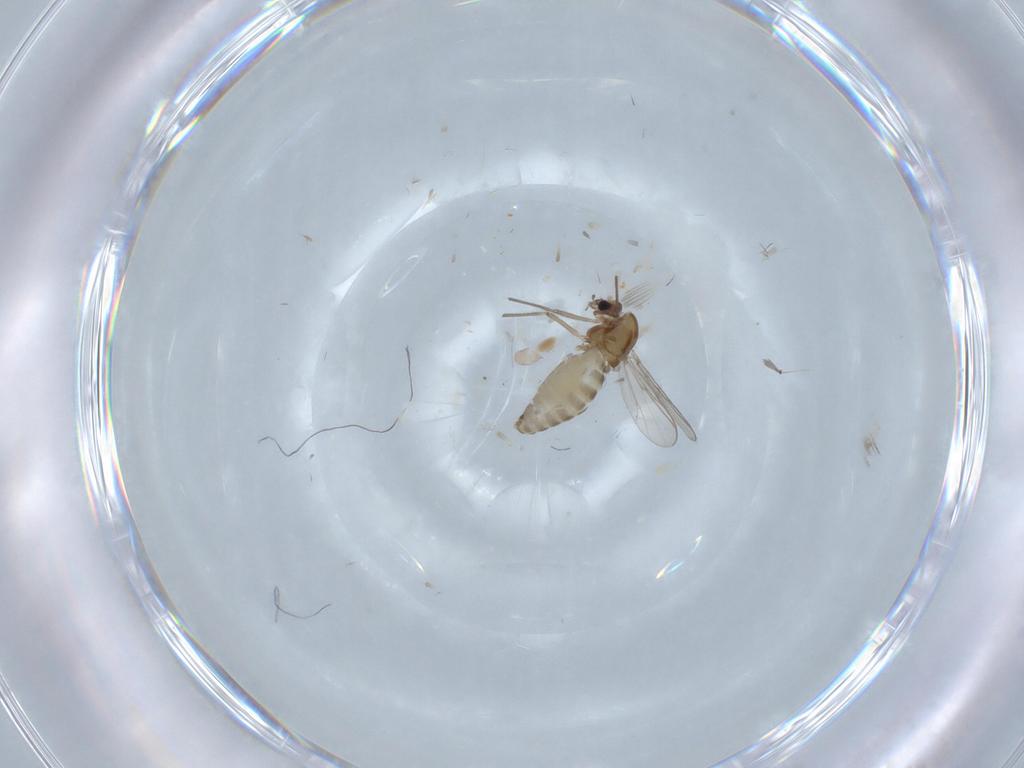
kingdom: Animalia
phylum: Arthropoda
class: Insecta
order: Diptera
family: Chironomidae
